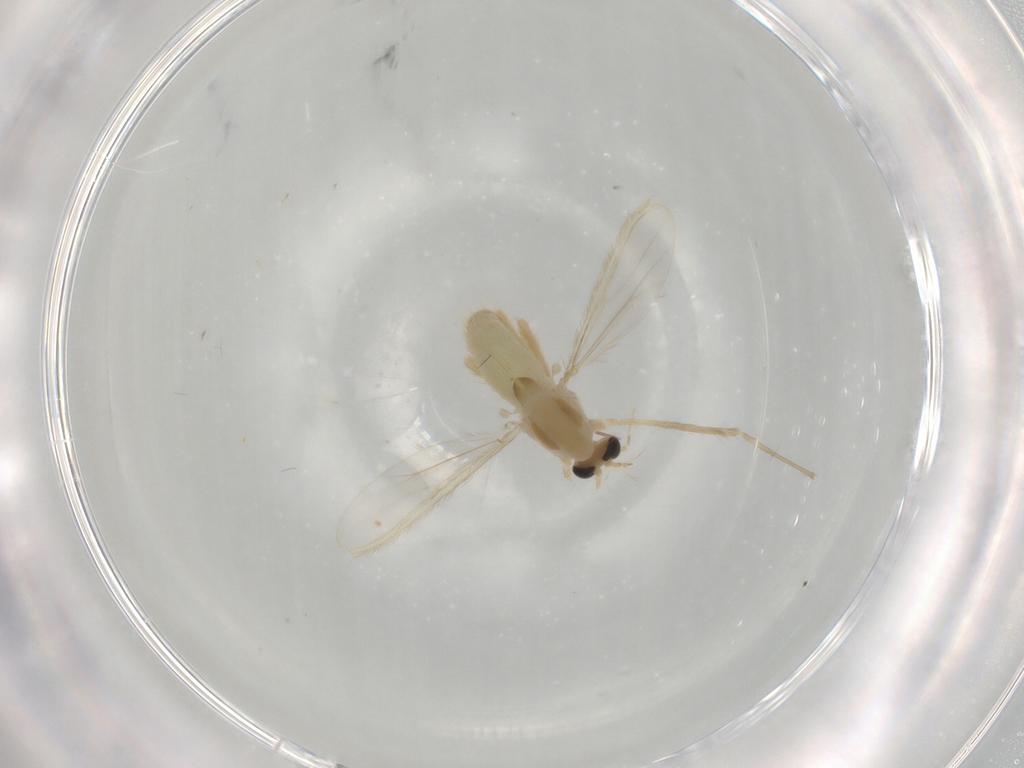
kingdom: Animalia
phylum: Arthropoda
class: Insecta
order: Diptera
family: Chironomidae
